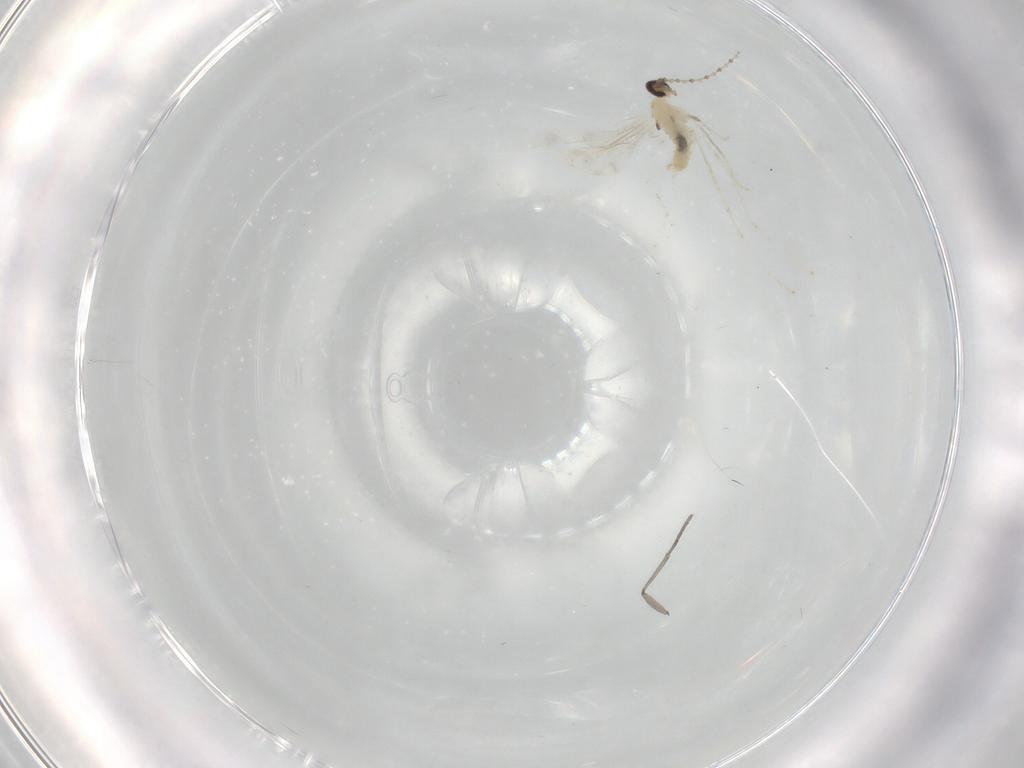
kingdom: Animalia
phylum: Arthropoda
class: Insecta
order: Diptera
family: Cecidomyiidae
